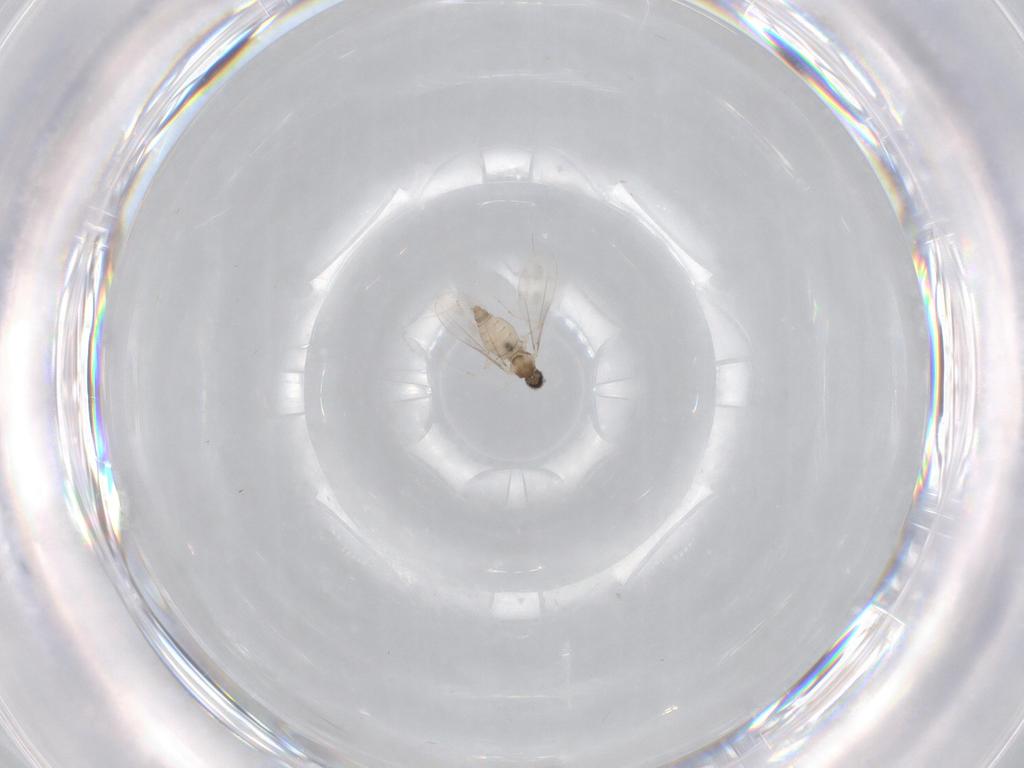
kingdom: Animalia
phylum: Arthropoda
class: Insecta
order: Diptera
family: Cecidomyiidae
